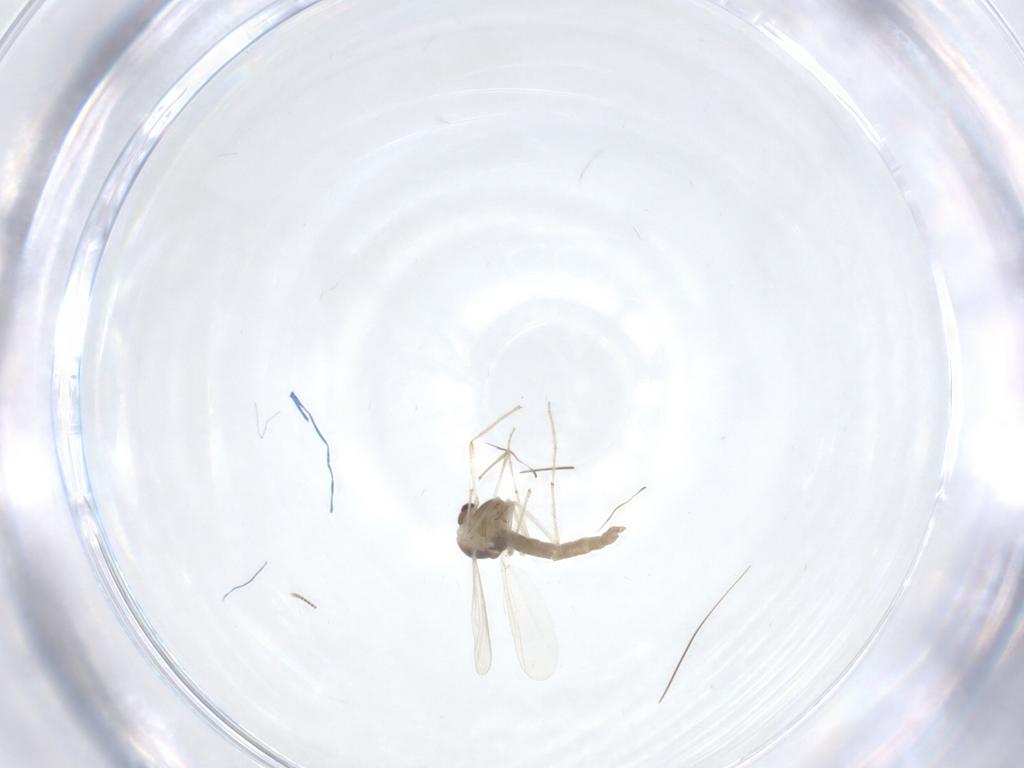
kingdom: Animalia
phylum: Arthropoda
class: Insecta
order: Diptera
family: Chironomidae
